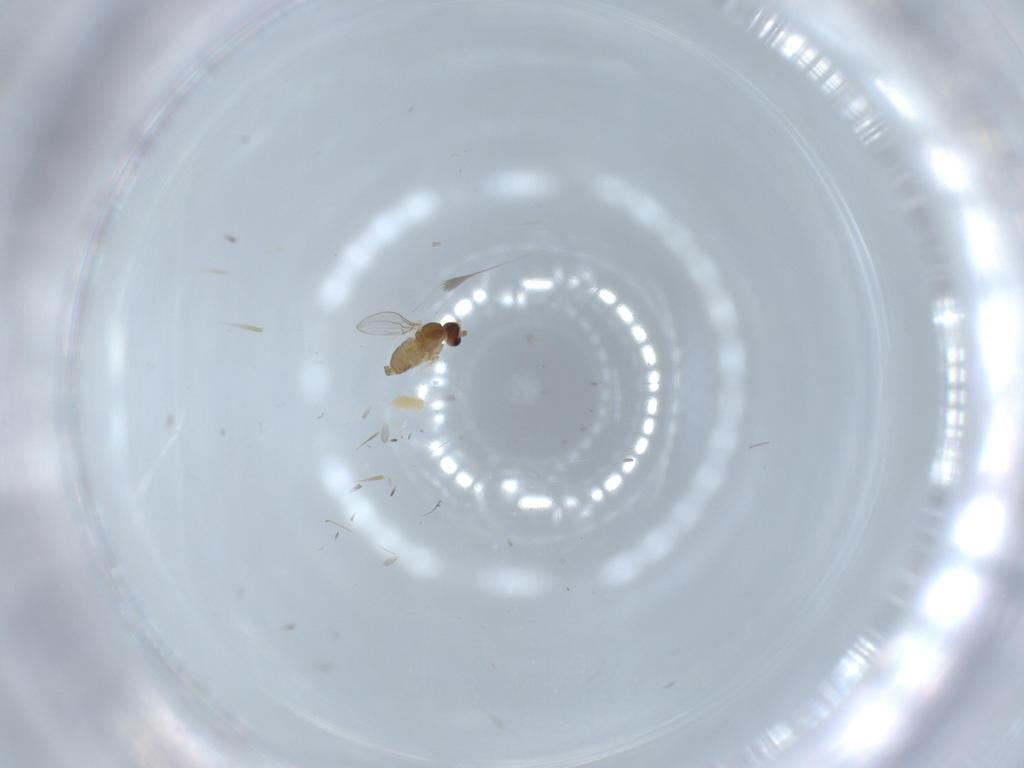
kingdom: Animalia
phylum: Arthropoda
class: Insecta
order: Diptera
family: Cecidomyiidae
